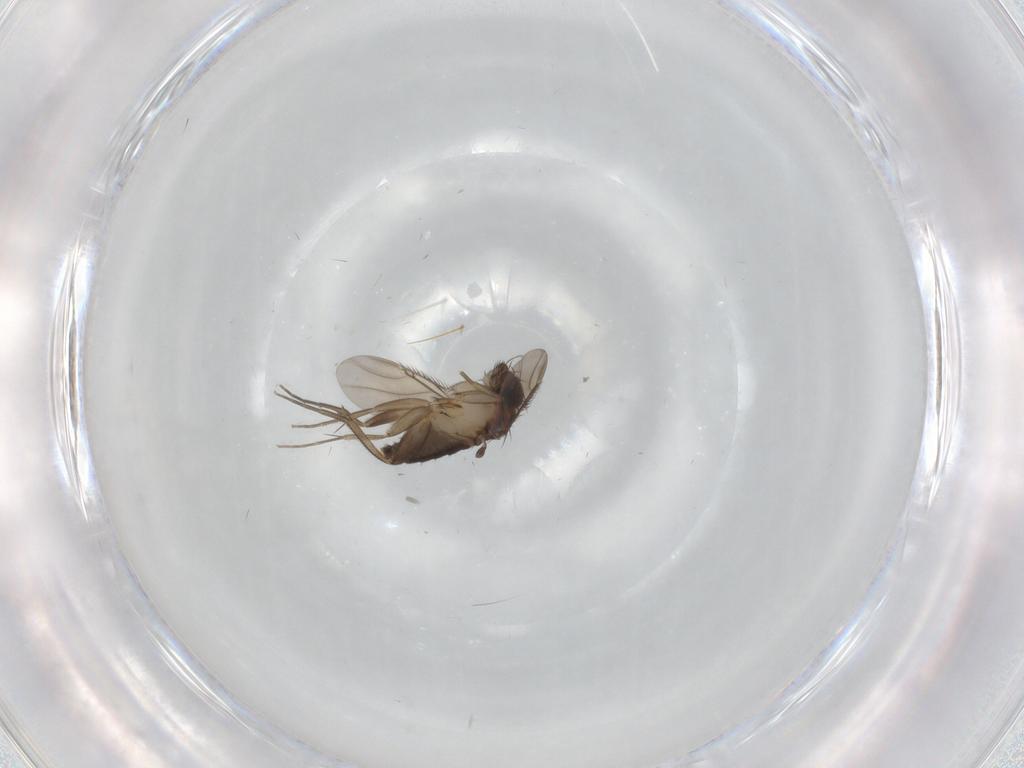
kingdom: Animalia
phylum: Arthropoda
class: Insecta
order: Diptera
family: Phoridae
